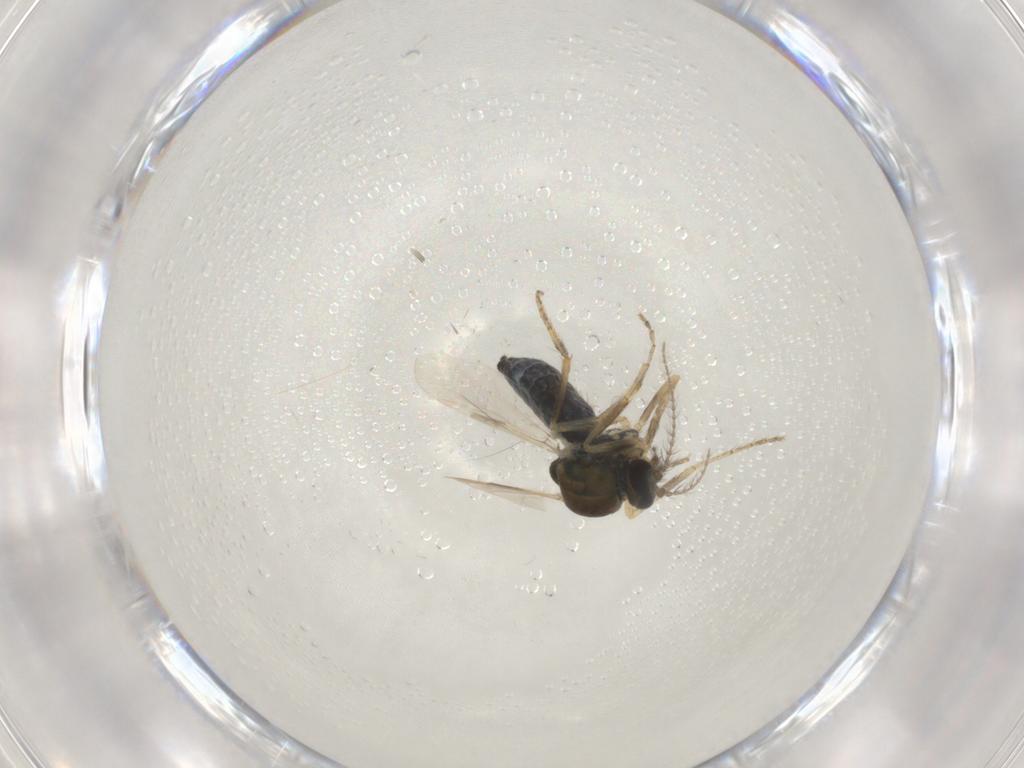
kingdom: Animalia
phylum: Arthropoda
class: Insecta
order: Diptera
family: Ceratopogonidae
